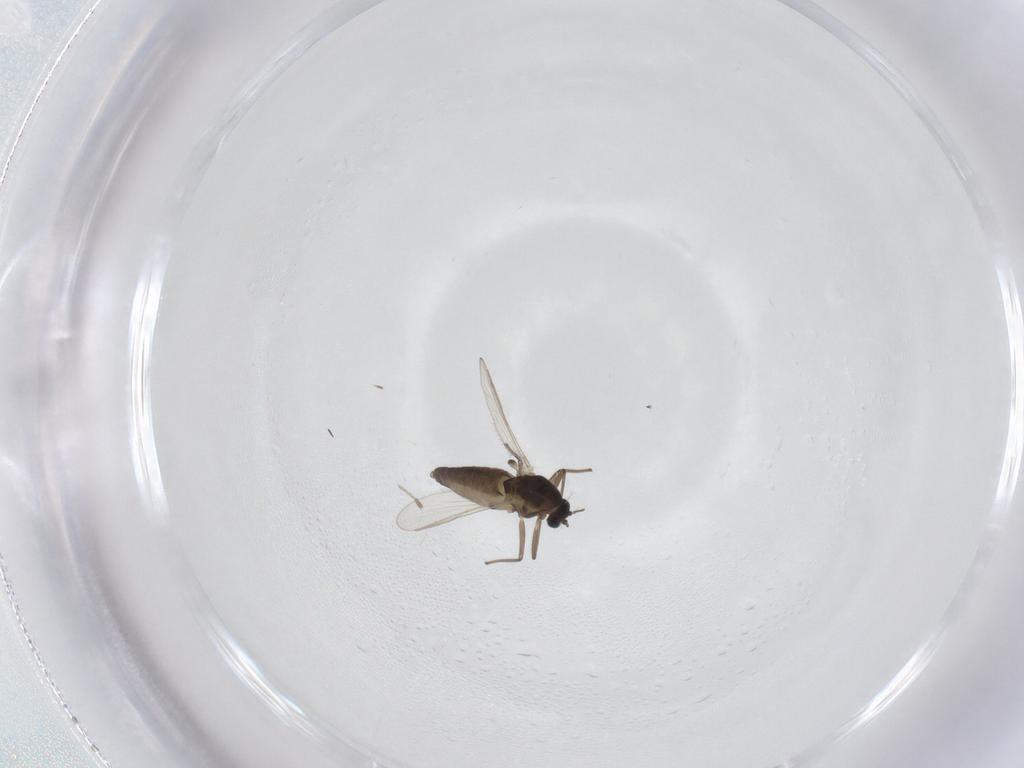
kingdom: Animalia
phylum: Arthropoda
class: Insecta
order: Diptera
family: Chironomidae
